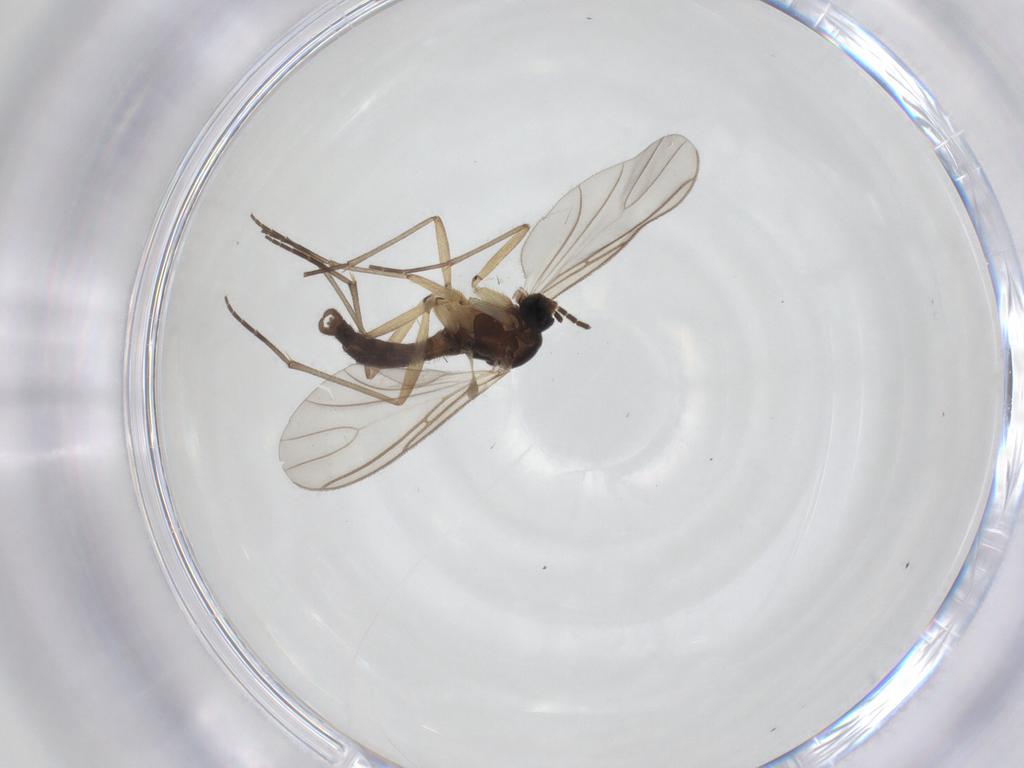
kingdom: Animalia
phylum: Arthropoda
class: Insecta
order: Diptera
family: Sciaridae
